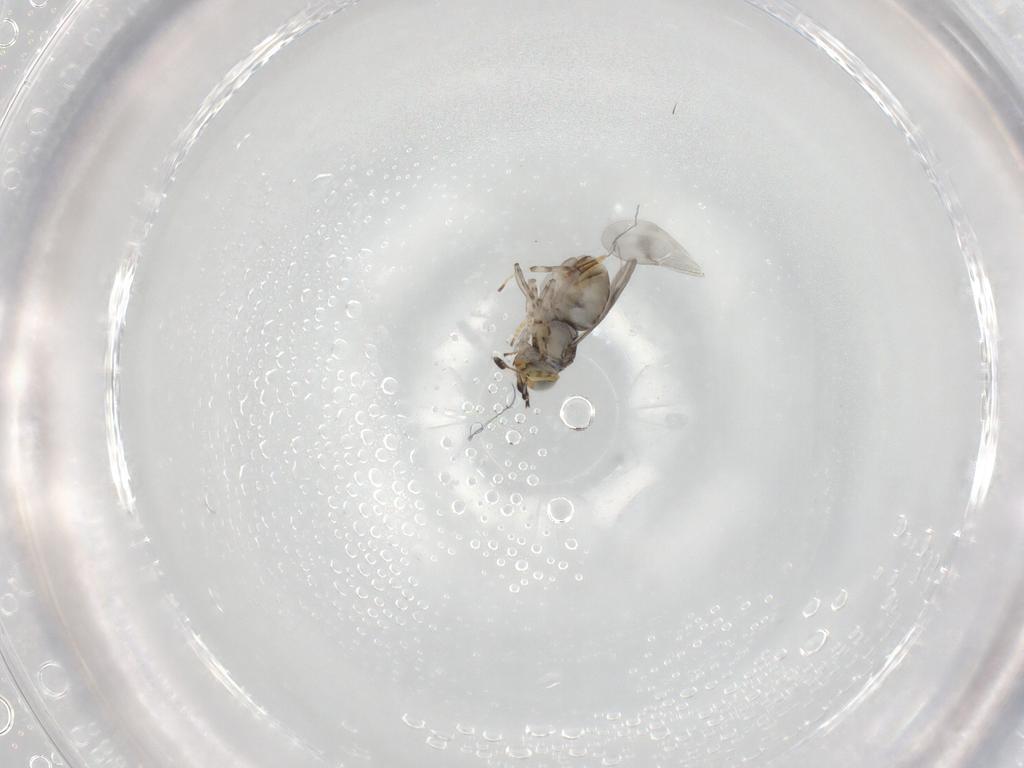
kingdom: Animalia
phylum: Arthropoda
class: Insecta
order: Hymenoptera
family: Encyrtidae
